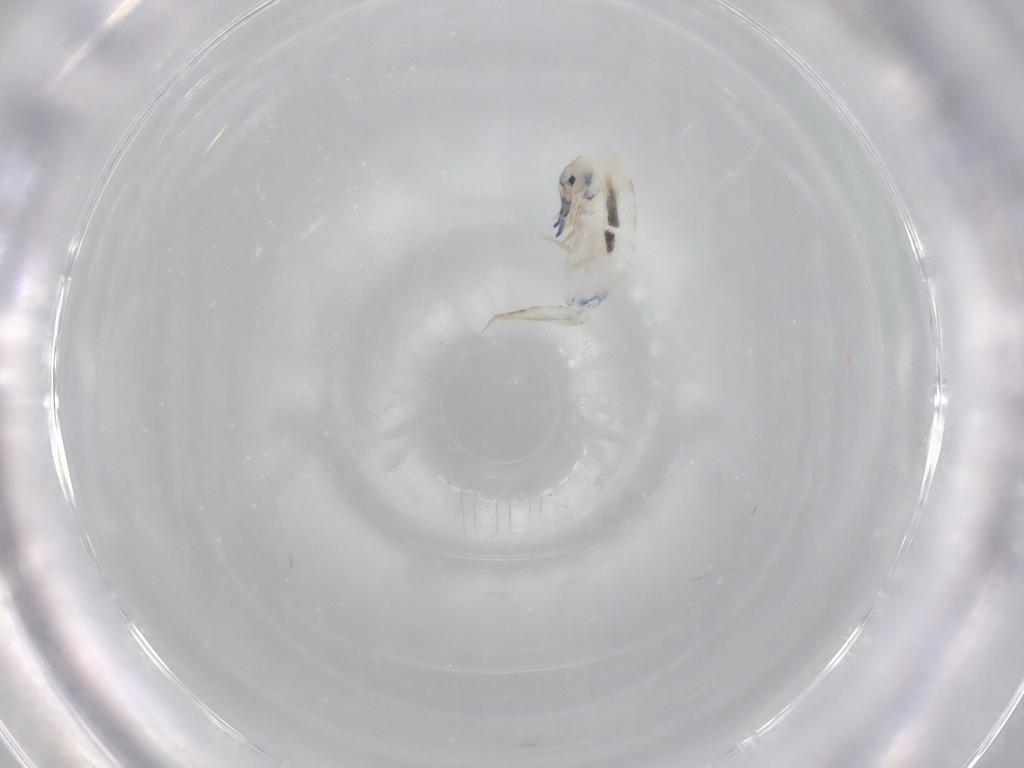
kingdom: Animalia
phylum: Arthropoda
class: Collembola
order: Entomobryomorpha
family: Entomobryidae
